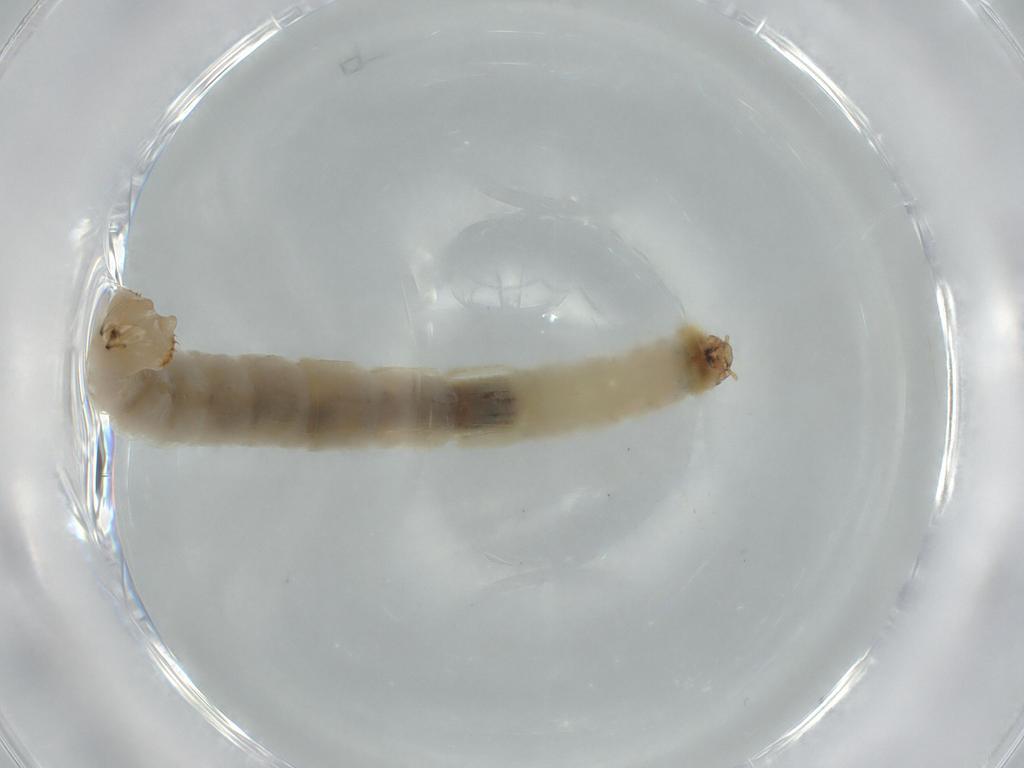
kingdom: Animalia
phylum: Arthropoda
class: Insecta
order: Diptera
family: Chironomidae
